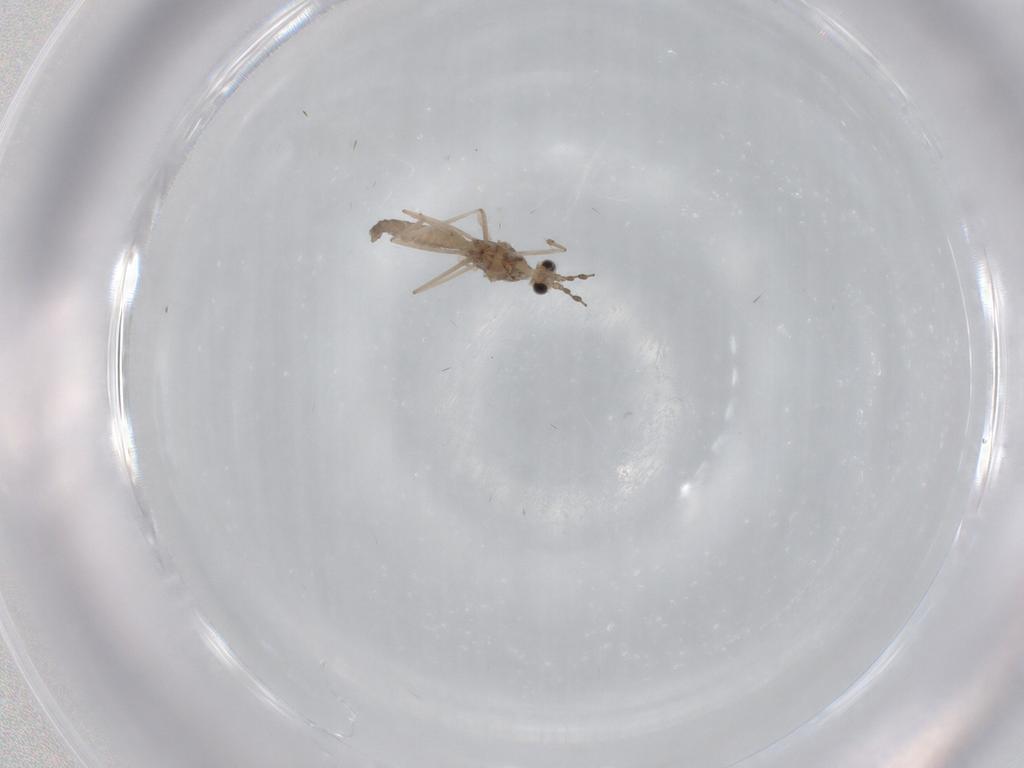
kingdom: Animalia
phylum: Arthropoda
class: Insecta
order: Diptera
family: Cecidomyiidae
